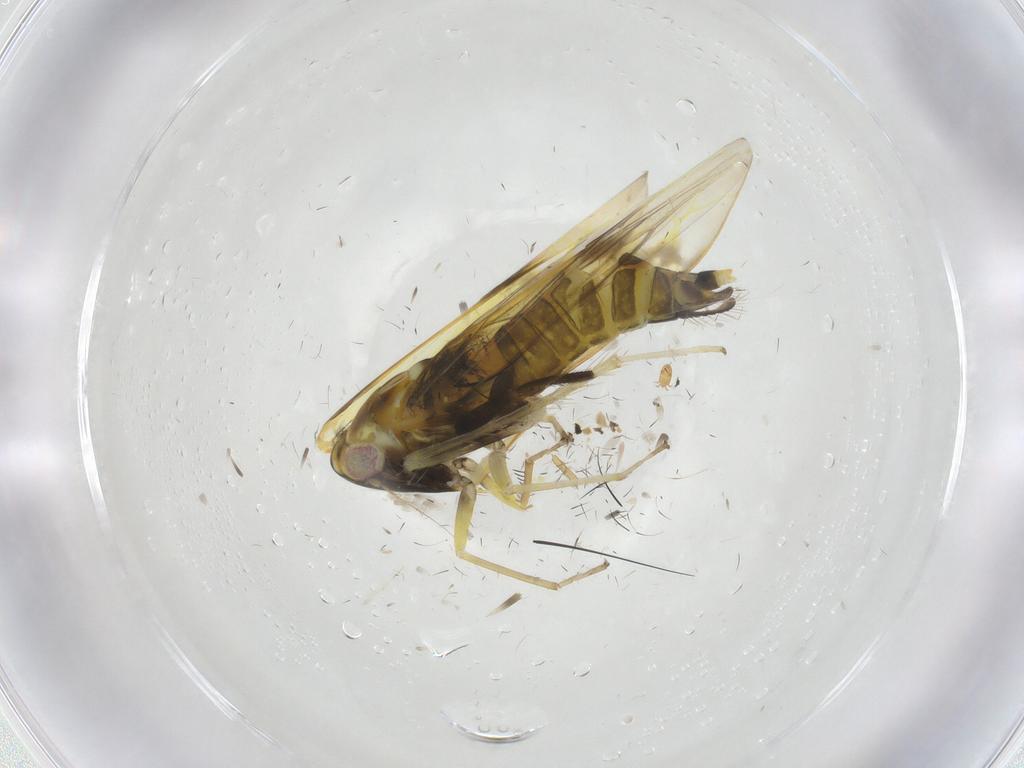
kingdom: Animalia
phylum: Arthropoda
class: Insecta
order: Hemiptera
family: Cicadellidae
